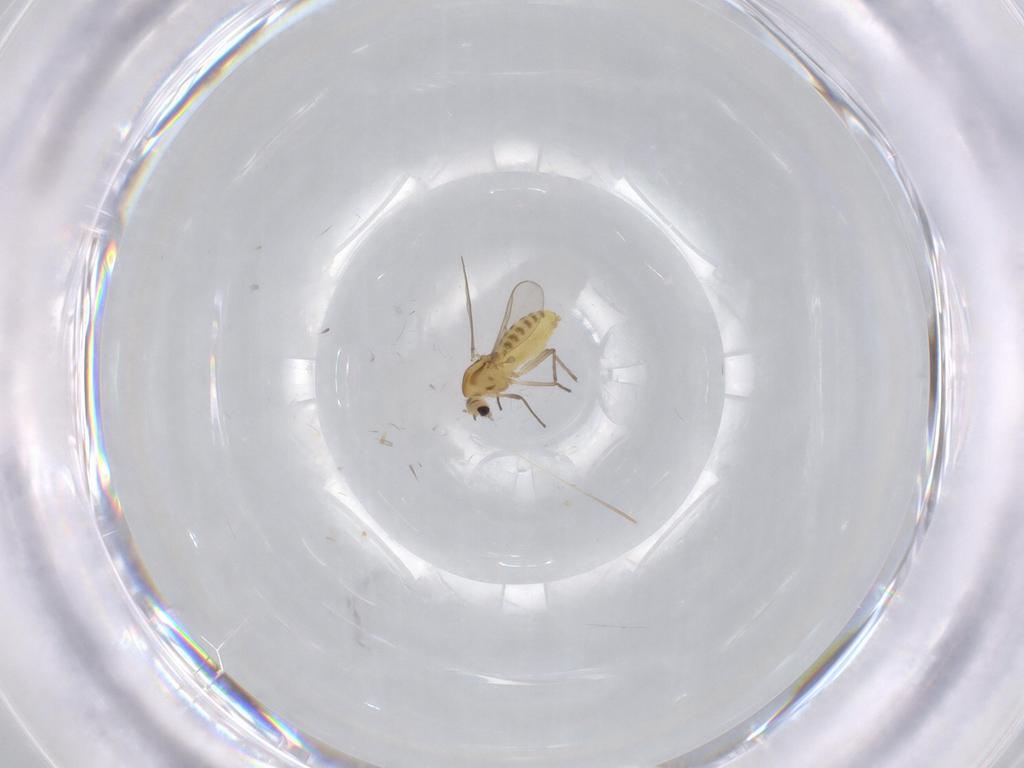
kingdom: Animalia
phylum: Arthropoda
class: Insecta
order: Diptera
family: Chironomidae
